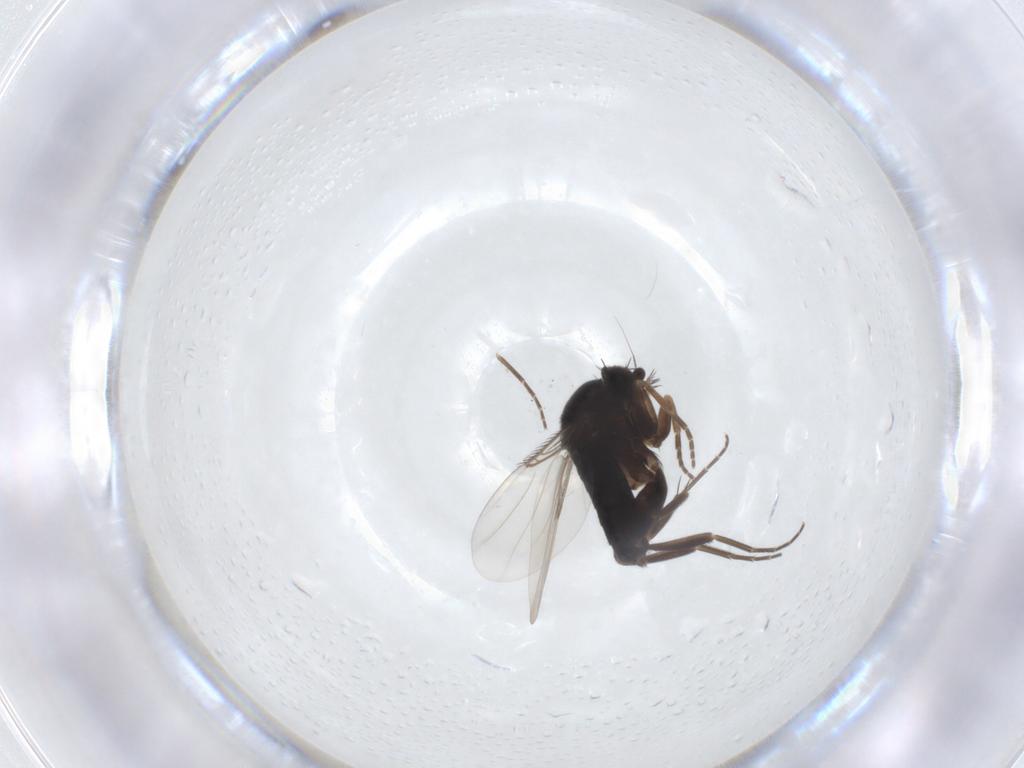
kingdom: Animalia
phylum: Arthropoda
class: Insecta
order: Diptera
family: Phoridae
